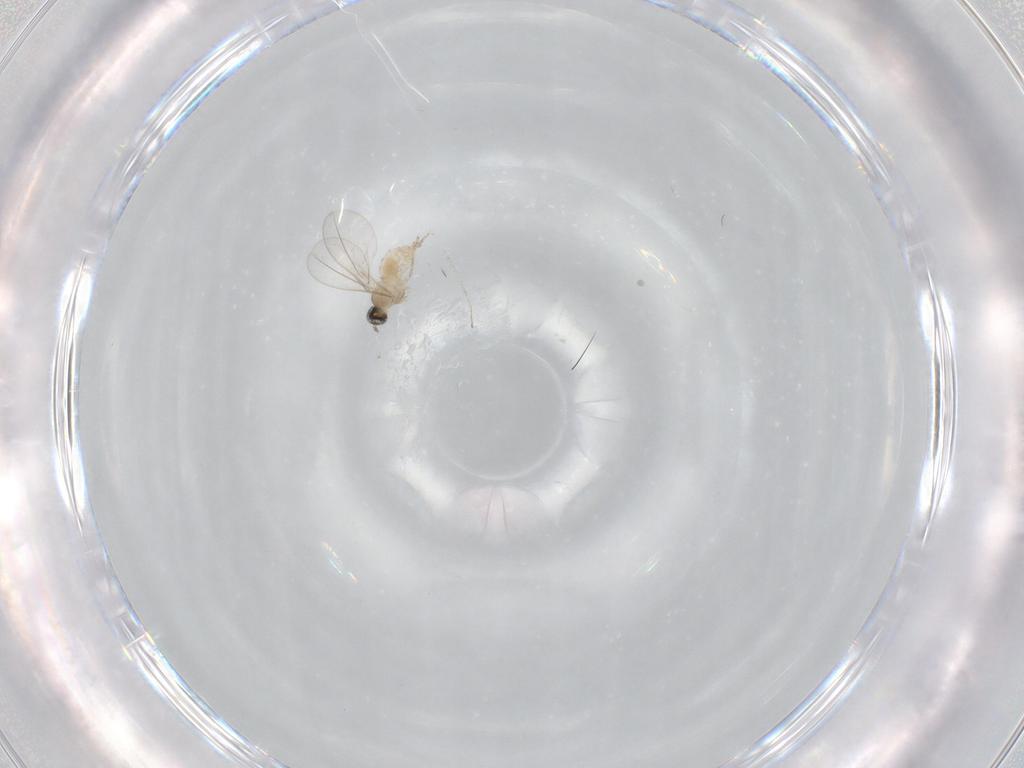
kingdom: Animalia
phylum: Arthropoda
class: Insecta
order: Diptera
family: Cecidomyiidae
